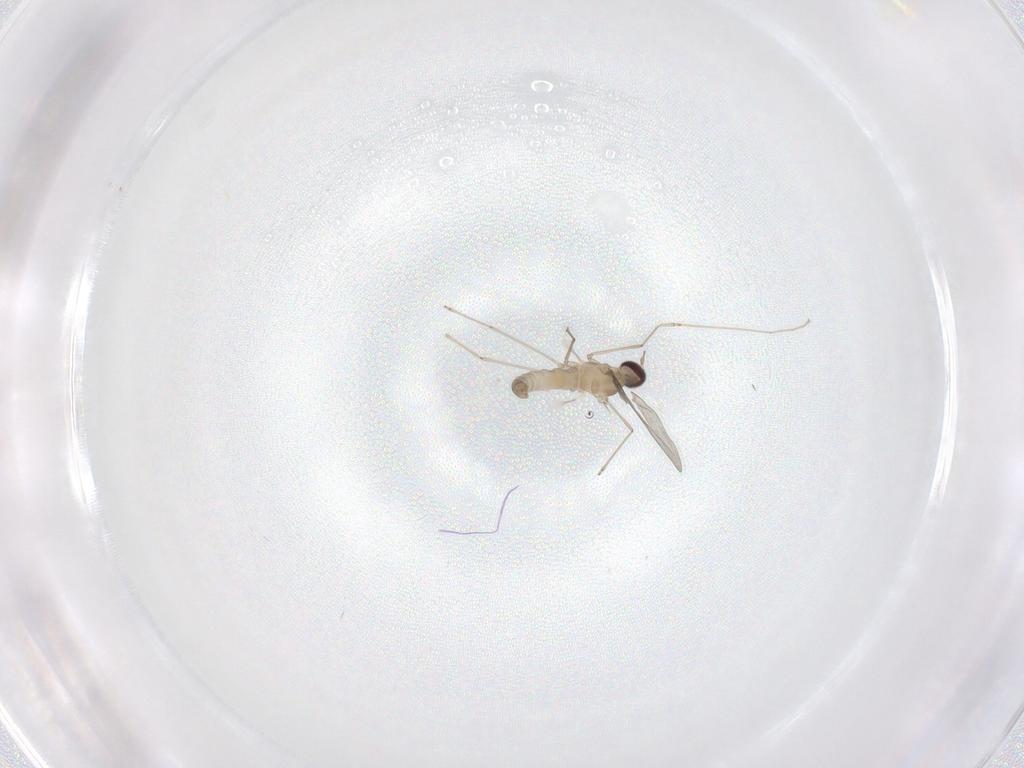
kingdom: Animalia
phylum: Arthropoda
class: Insecta
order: Diptera
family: Cecidomyiidae
